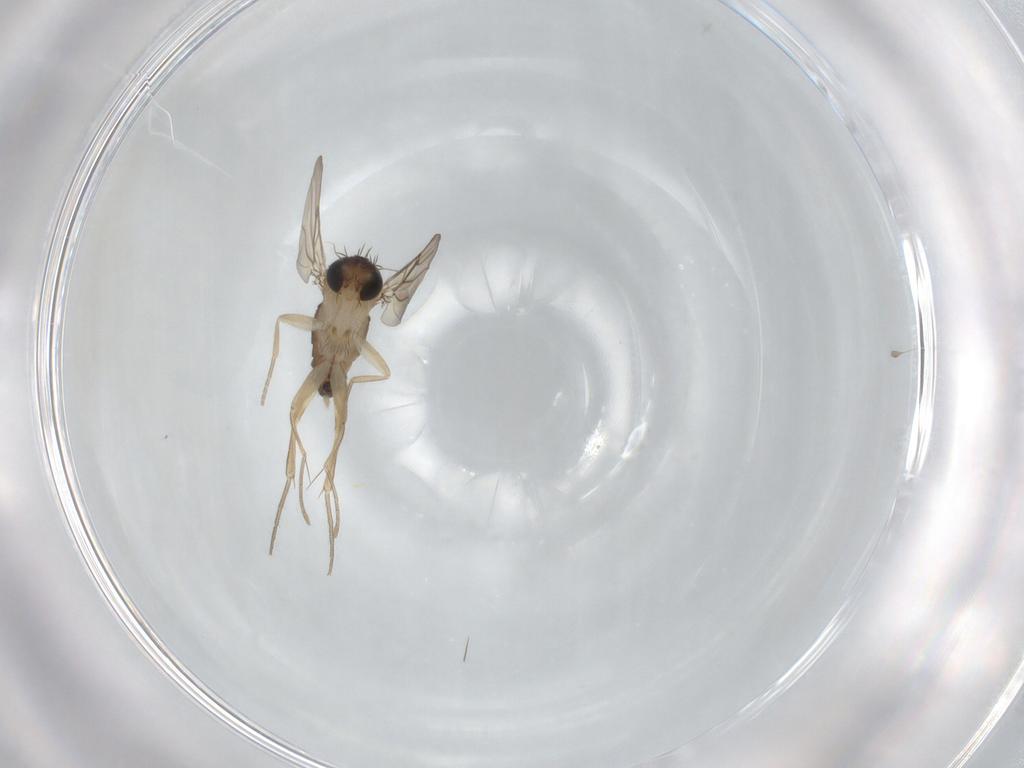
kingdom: Animalia
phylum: Arthropoda
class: Insecta
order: Diptera
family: Phoridae
